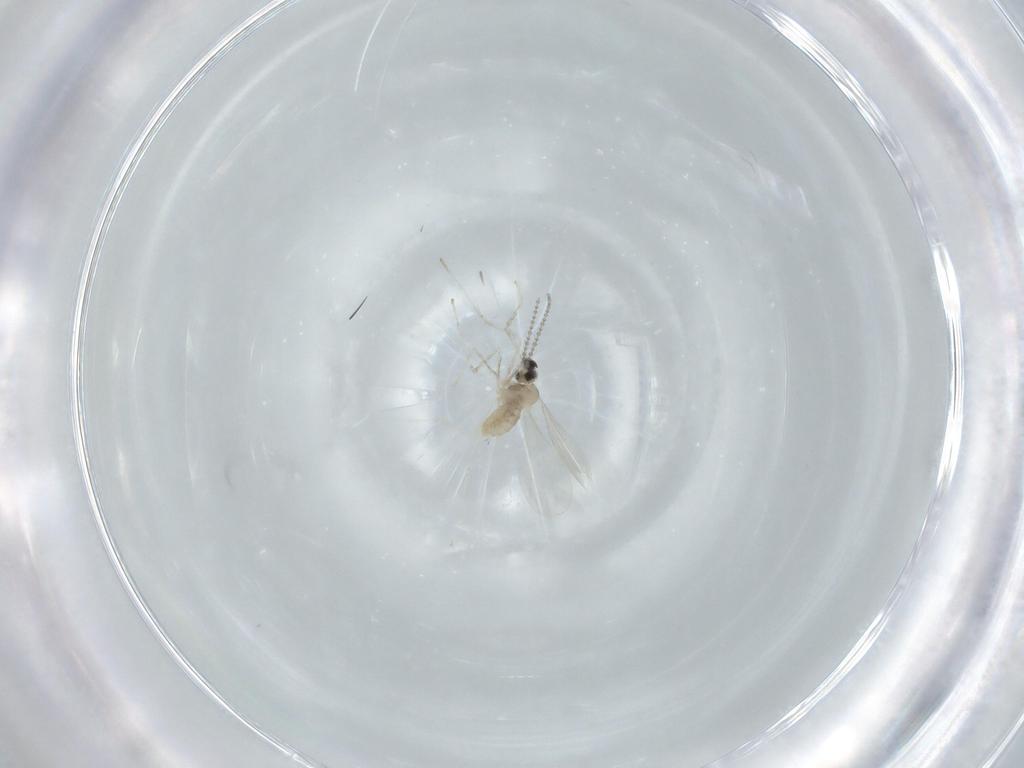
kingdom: Animalia
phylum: Arthropoda
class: Insecta
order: Diptera
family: Cecidomyiidae
